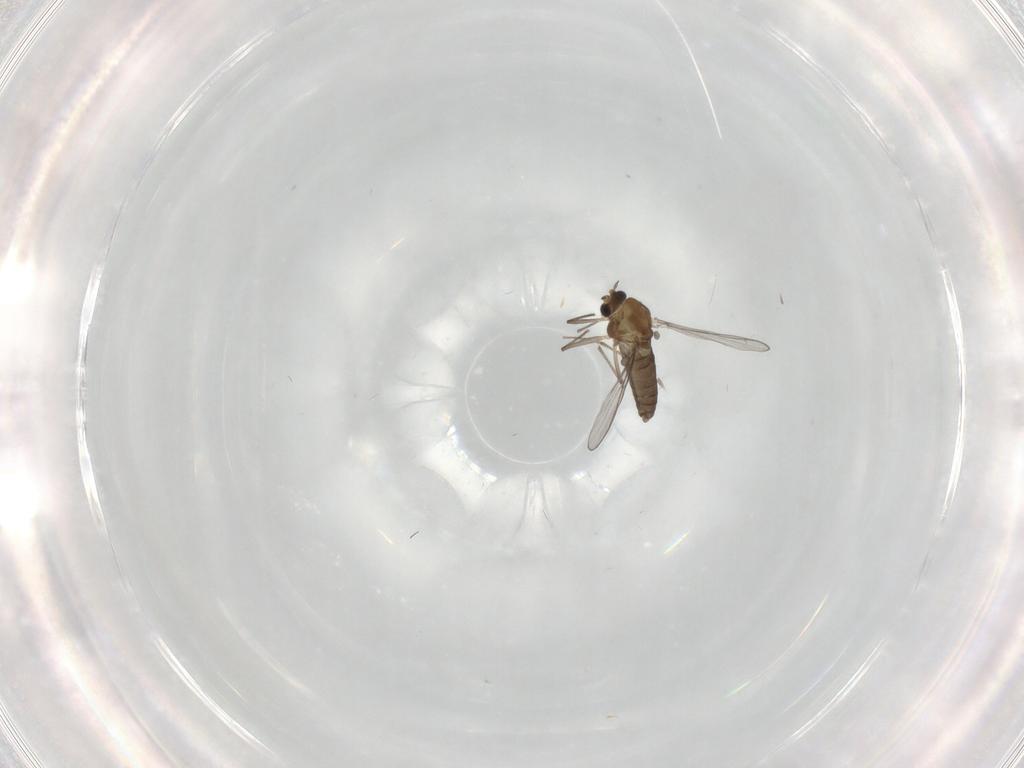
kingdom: Animalia
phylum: Arthropoda
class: Insecta
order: Diptera
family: Chironomidae
